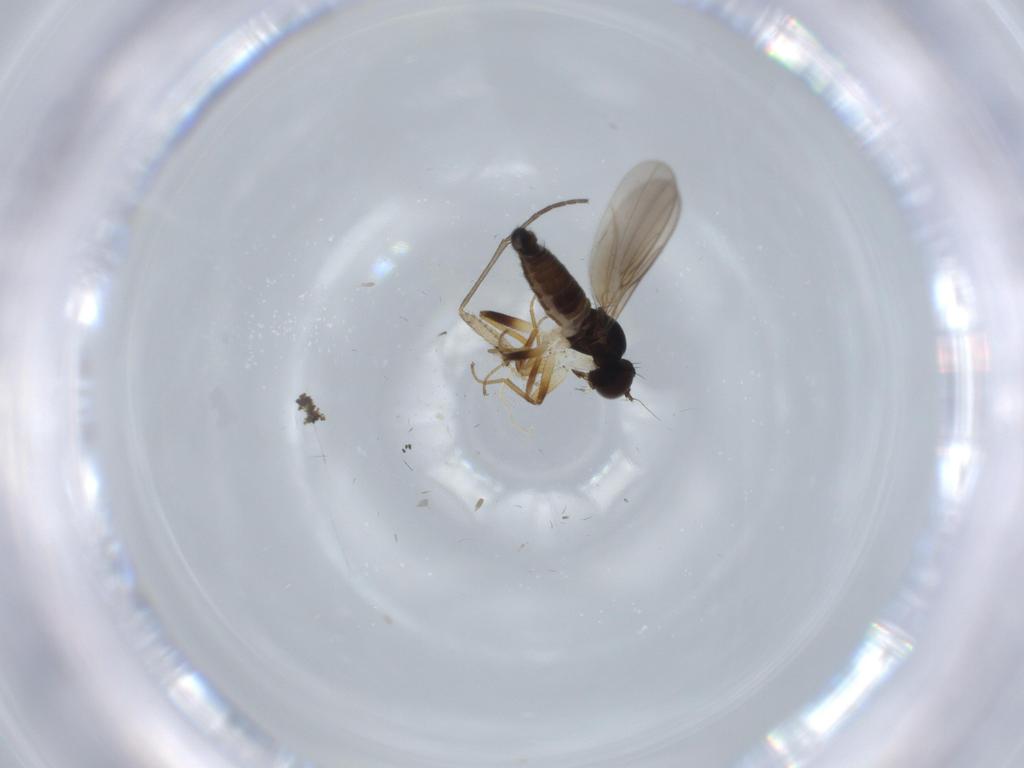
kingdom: Animalia
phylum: Arthropoda
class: Insecta
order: Diptera
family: Hybotidae
